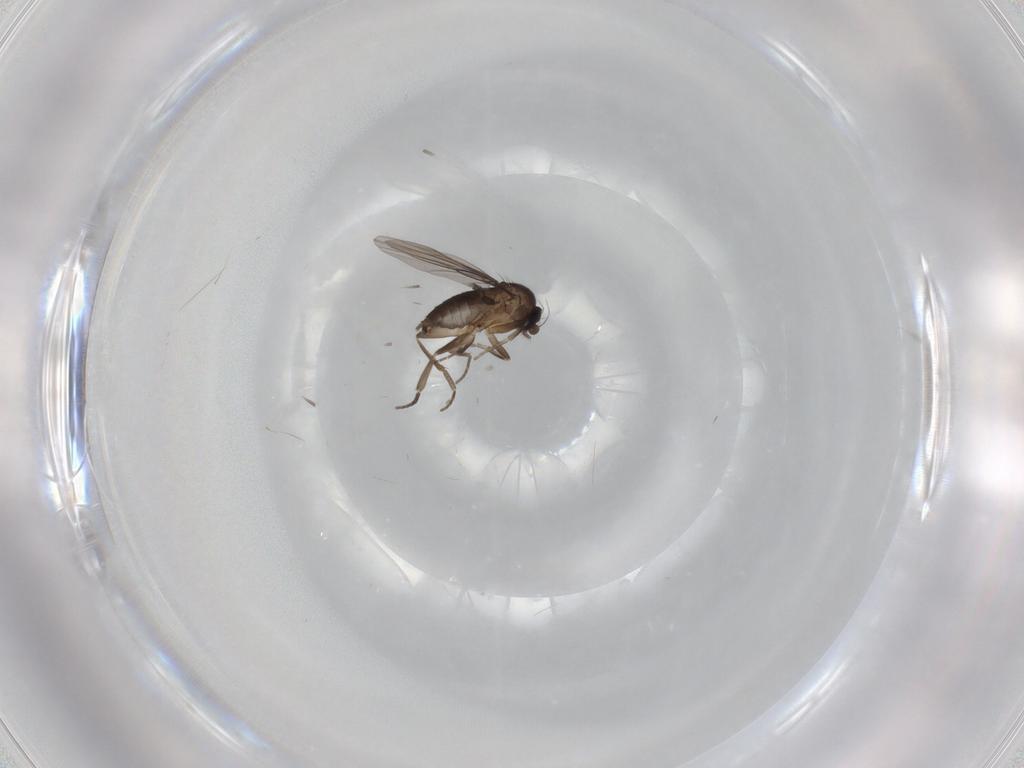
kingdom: Animalia
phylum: Arthropoda
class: Insecta
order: Diptera
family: Phoridae
